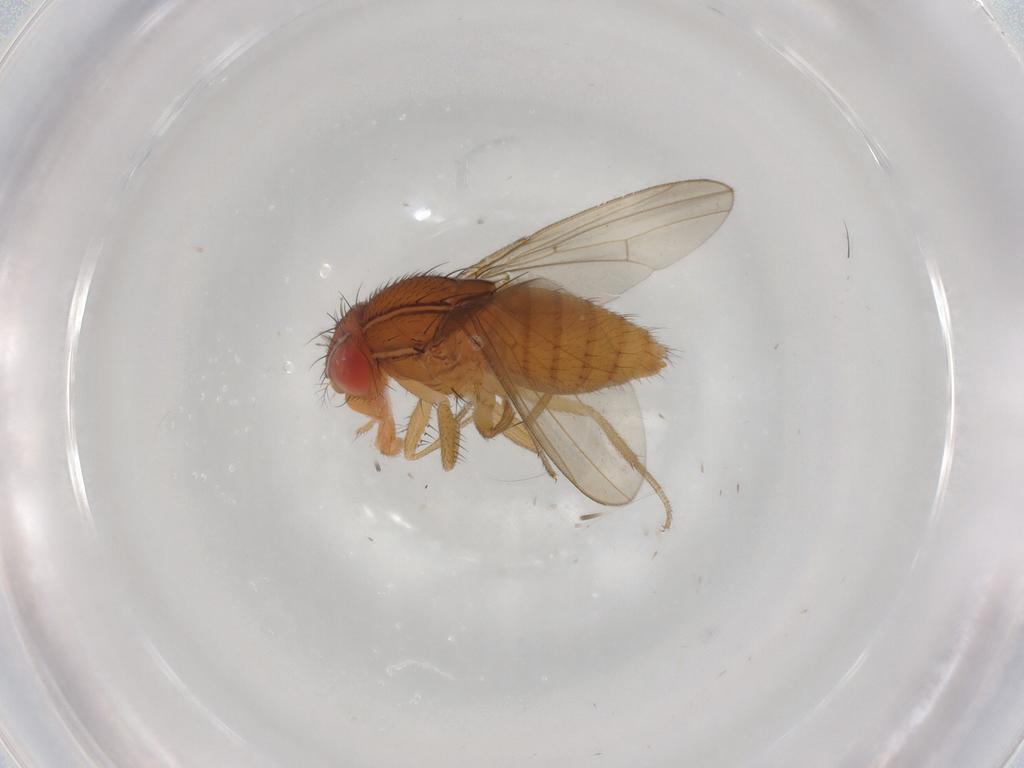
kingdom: Animalia
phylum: Arthropoda
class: Insecta
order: Diptera
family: Drosophilidae
